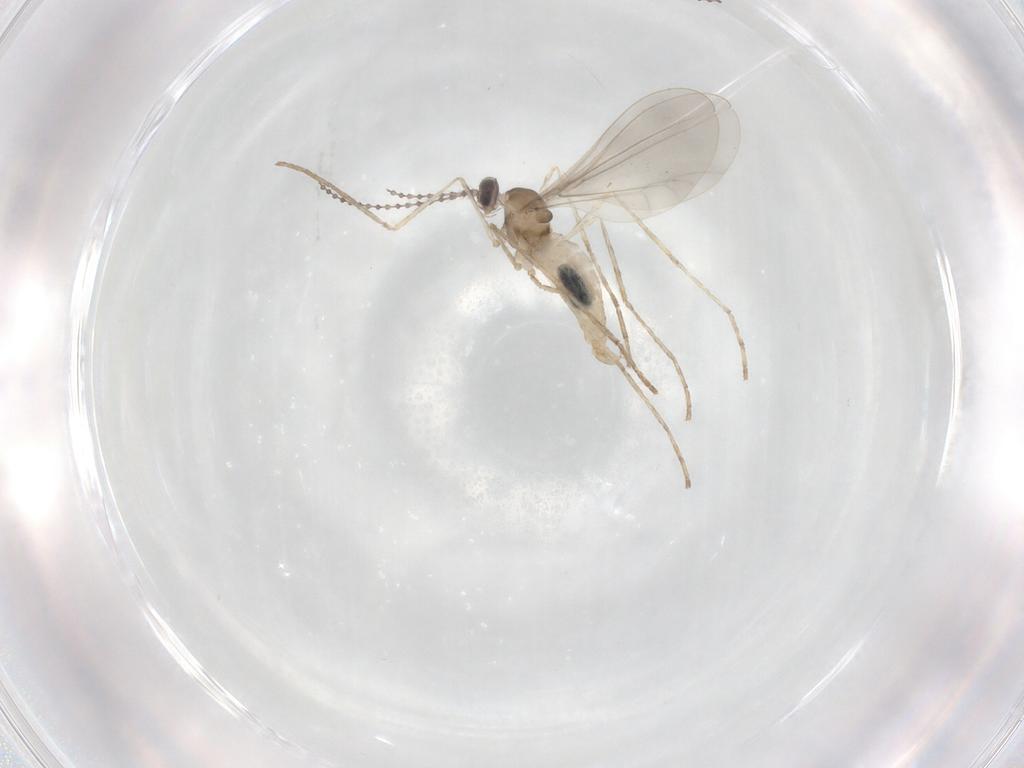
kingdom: Animalia
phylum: Arthropoda
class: Insecta
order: Diptera
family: Cecidomyiidae
